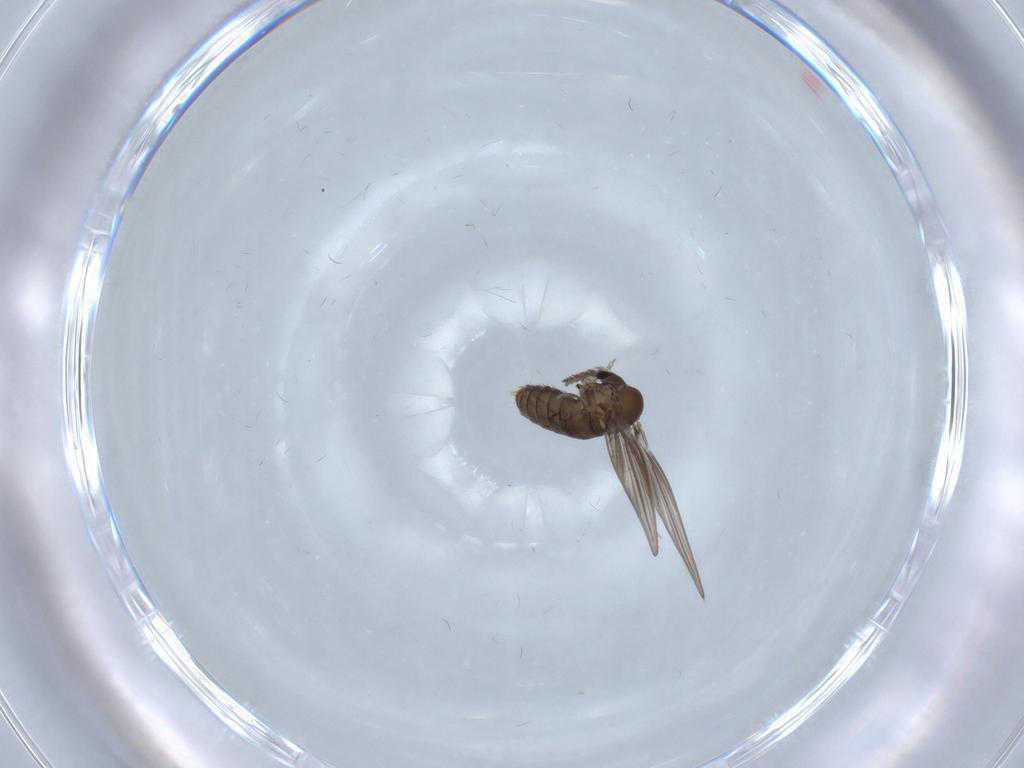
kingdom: Animalia
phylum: Arthropoda
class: Insecta
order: Diptera
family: Psychodidae
